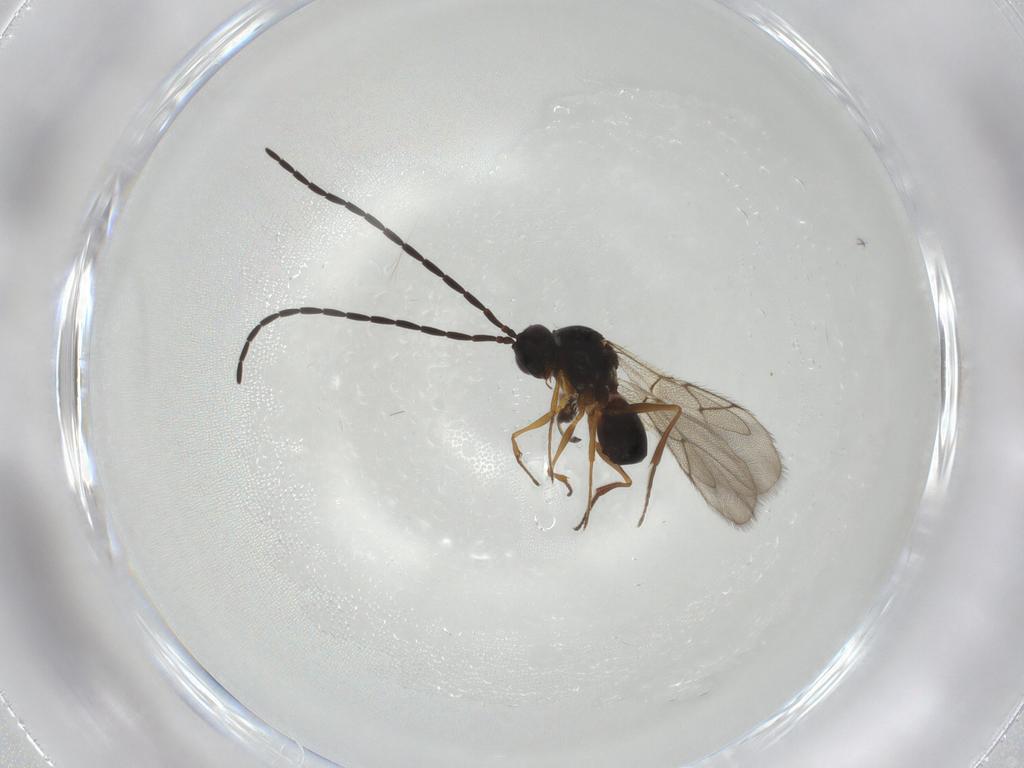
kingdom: Animalia
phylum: Arthropoda
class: Insecta
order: Hymenoptera
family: Figitidae
